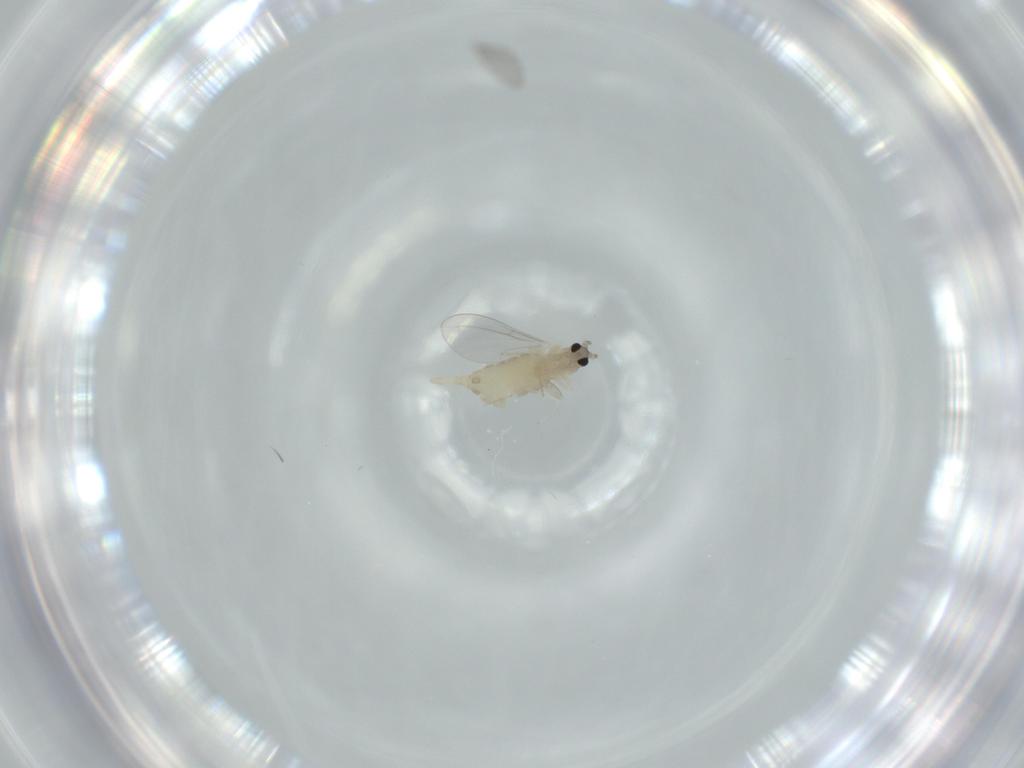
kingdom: Animalia
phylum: Arthropoda
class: Insecta
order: Diptera
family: Cecidomyiidae
